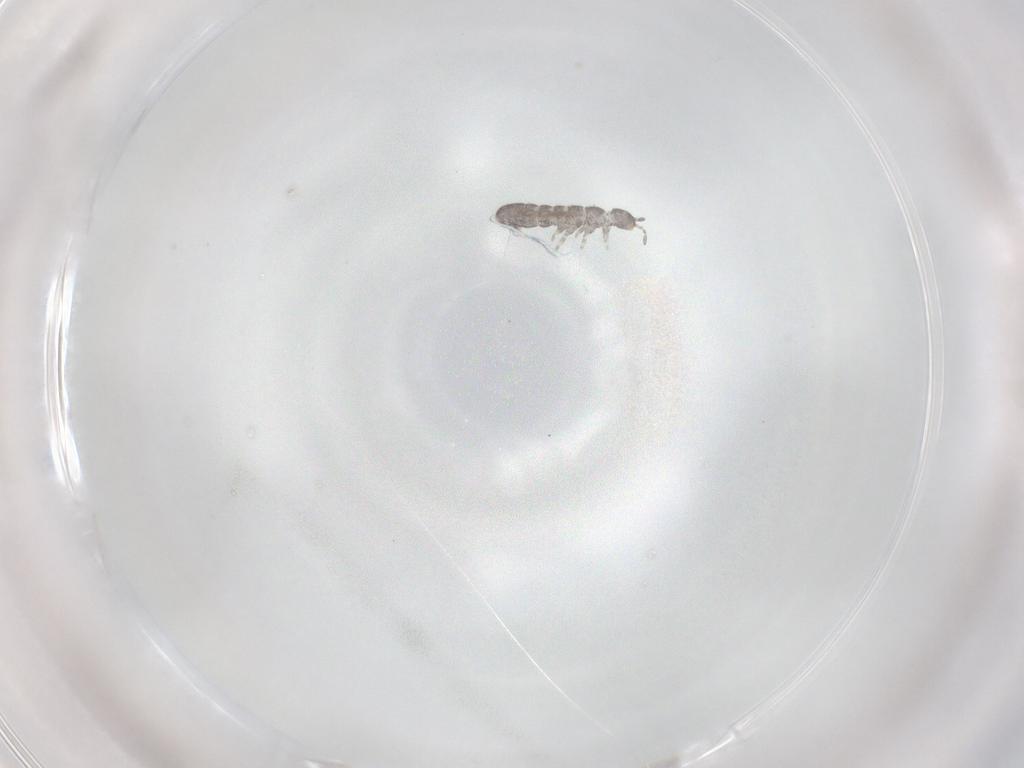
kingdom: Animalia
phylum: Arthropoda
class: Collembola
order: Entomobryomorpha
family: Isotomidae
